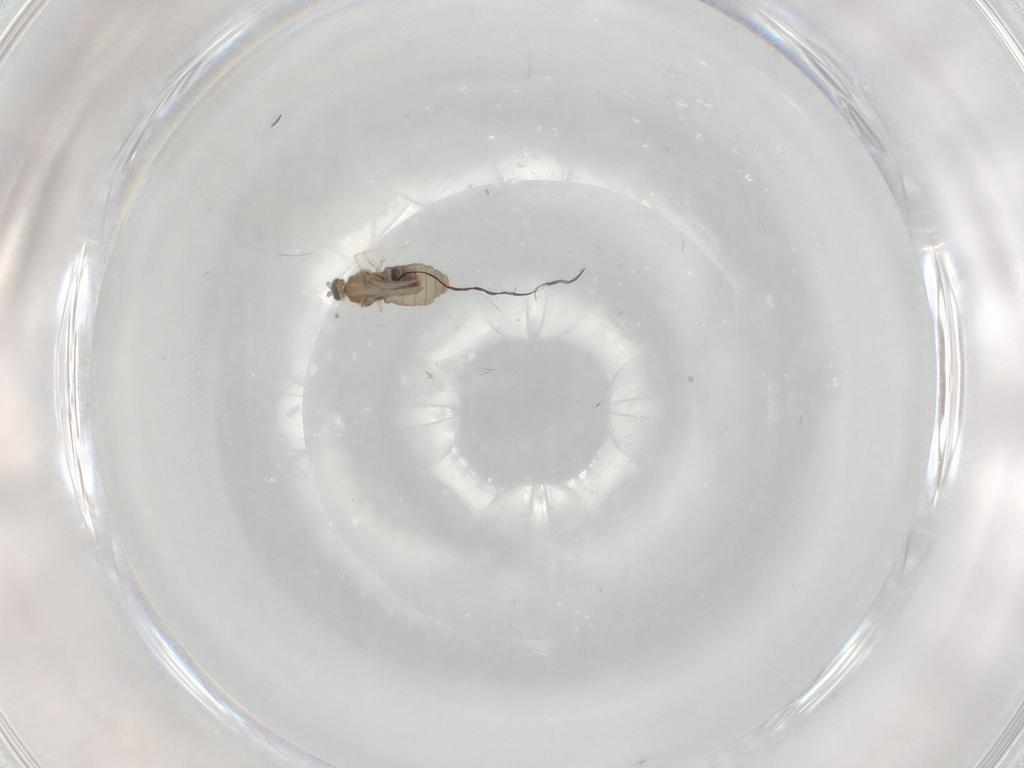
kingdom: Animalia
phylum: Arthropoda
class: Insecta
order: Diptera
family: Cecidomyiidae
